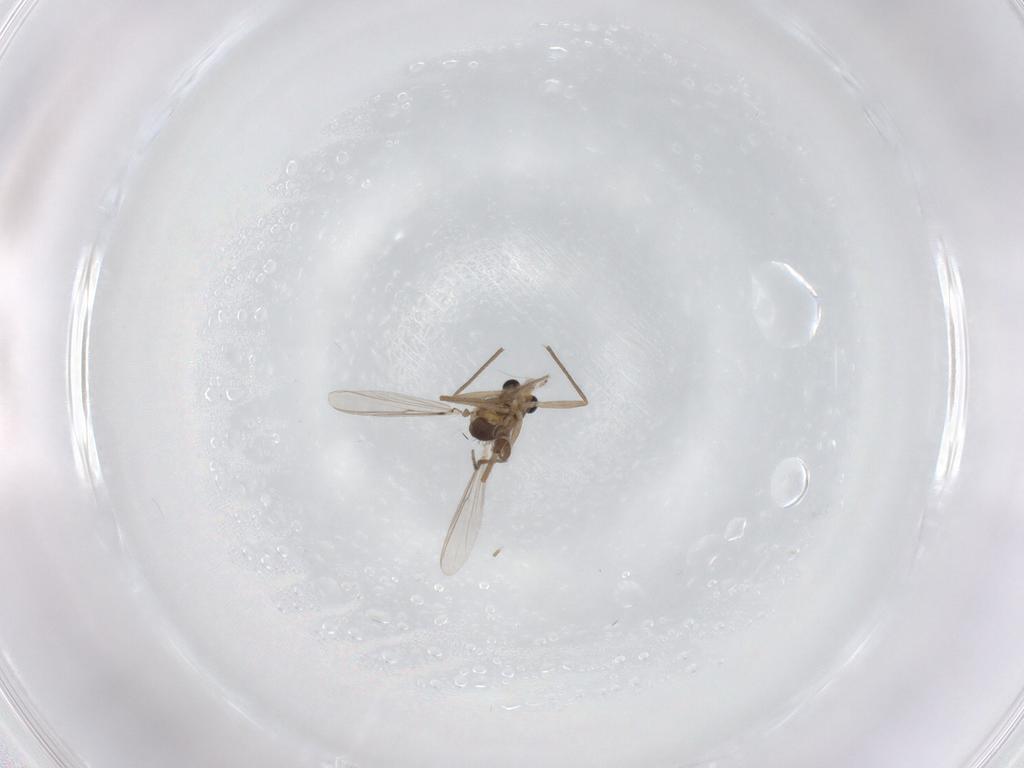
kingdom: Animalia
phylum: Arthropoda
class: Insecta
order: Diptera
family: Chironomidae
